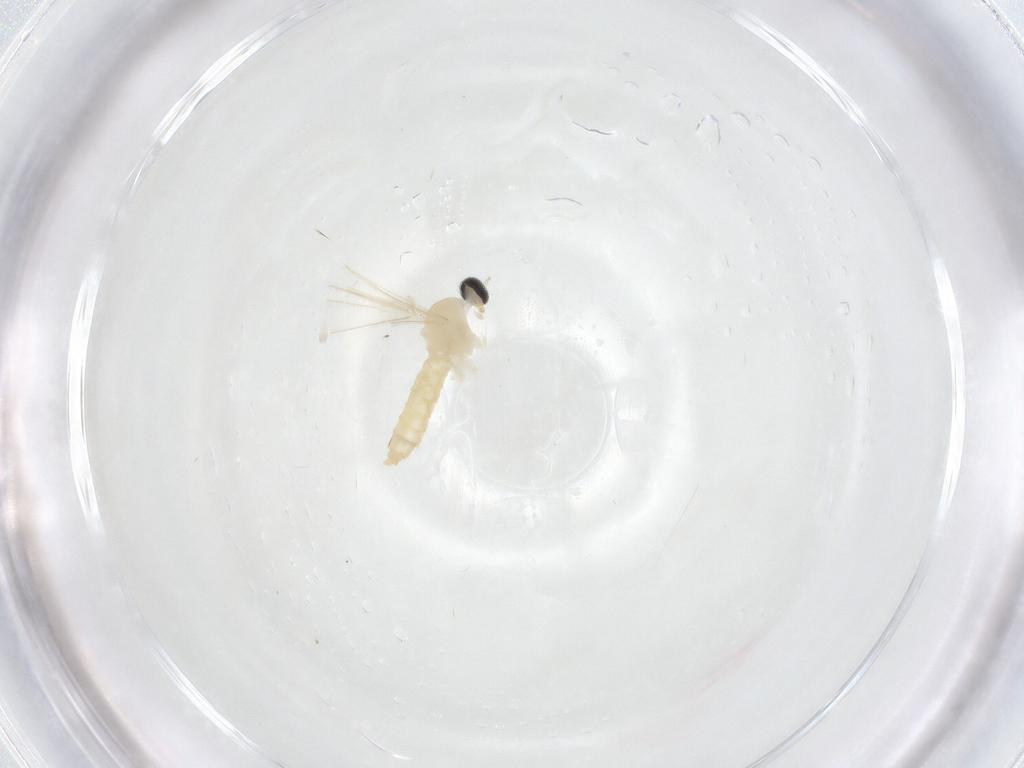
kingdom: Animalia
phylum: Arthropoda
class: Insecta
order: Diptera
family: Cecidomyiidae
